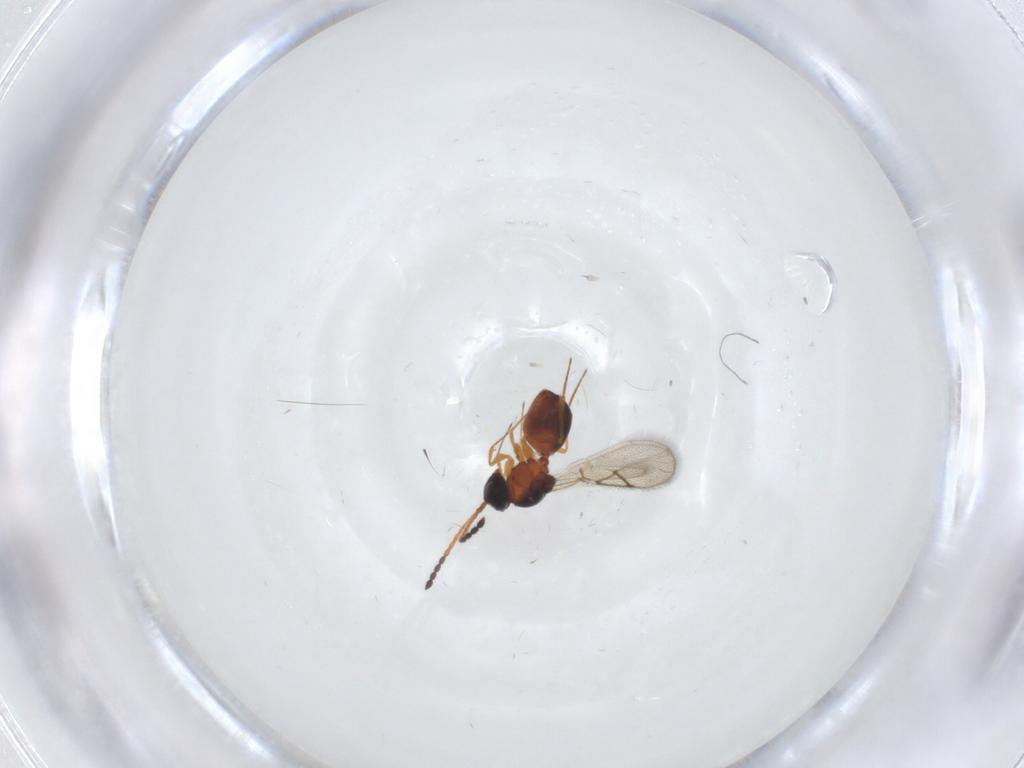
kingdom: Animalia
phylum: Arthropoda
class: Insecta
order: Hymenoptera
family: Figitidae
